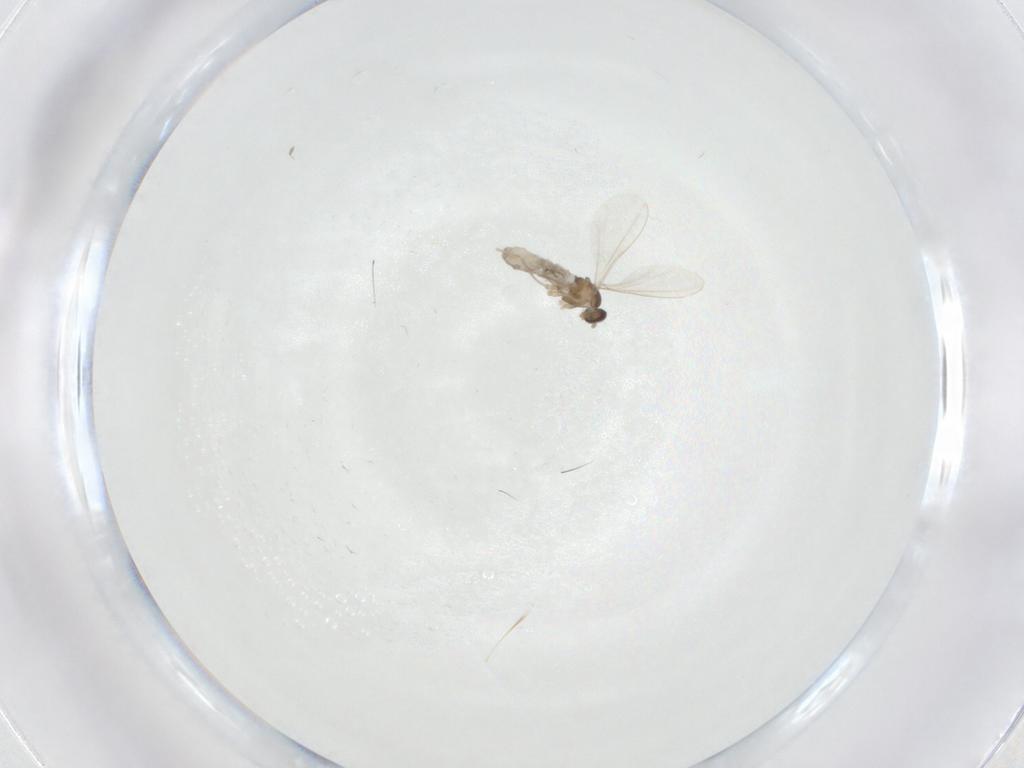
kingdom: Animalia
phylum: Arthropoda
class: Insecta
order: Diptera
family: Cecidomyiidae
